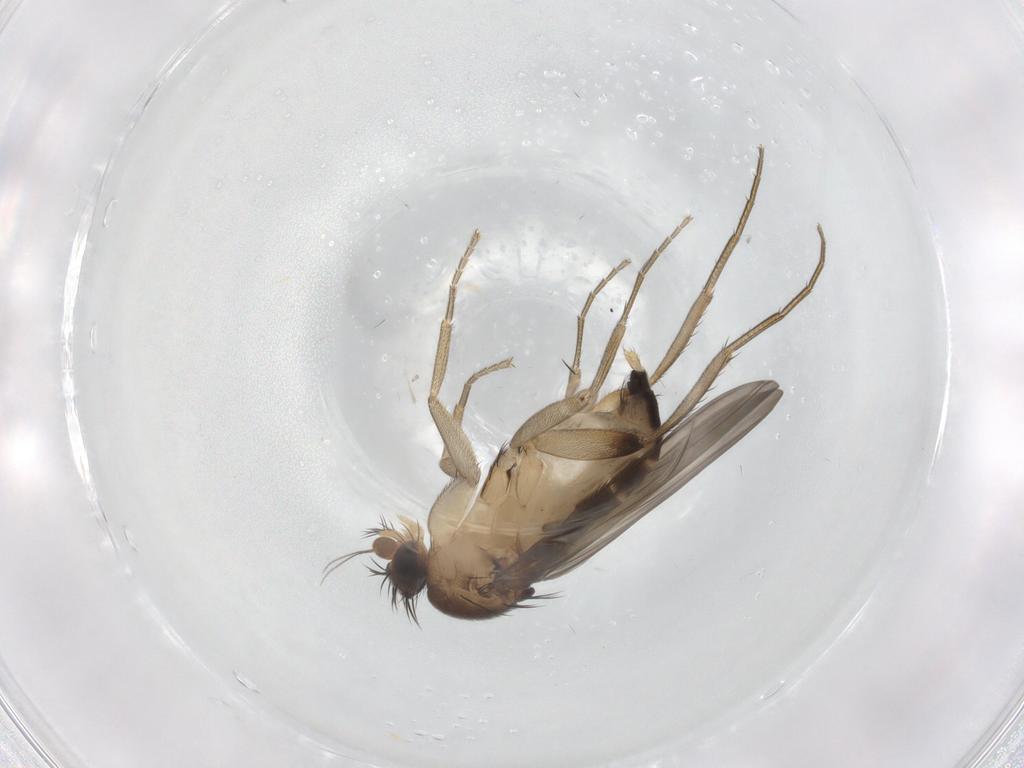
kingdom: Animalia
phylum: Arthropoda
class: Insecta
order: Diptera
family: Phoridae
